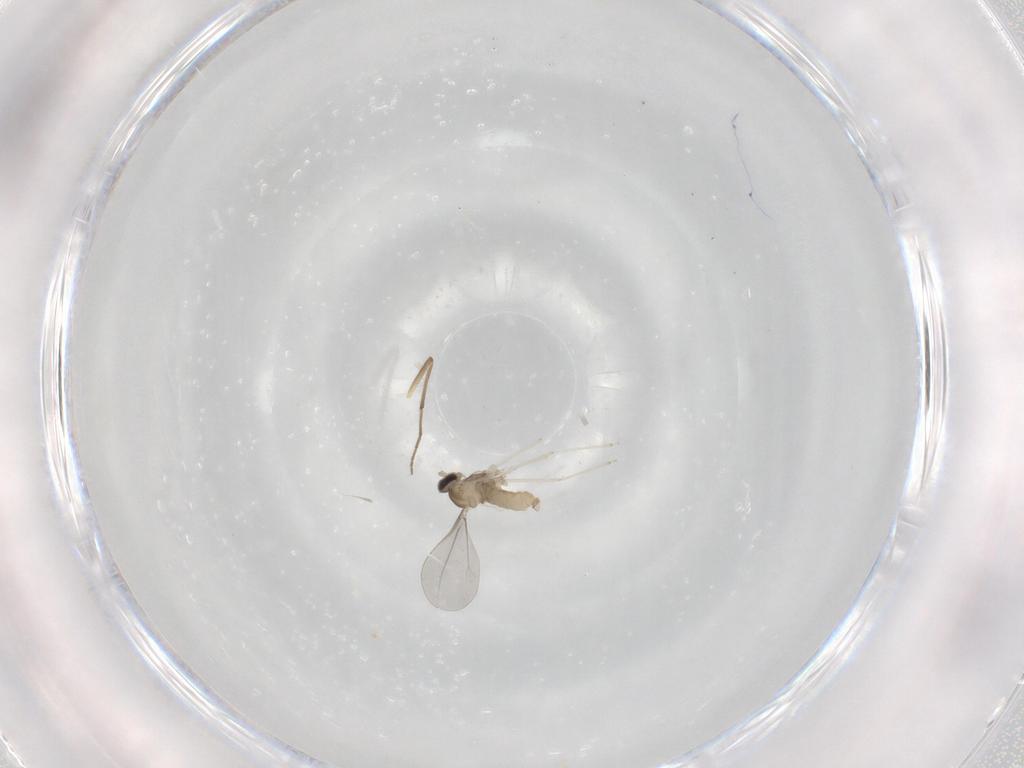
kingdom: Animalia
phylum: Arthropoda
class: Insecta
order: Diptera
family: Chironomidae
